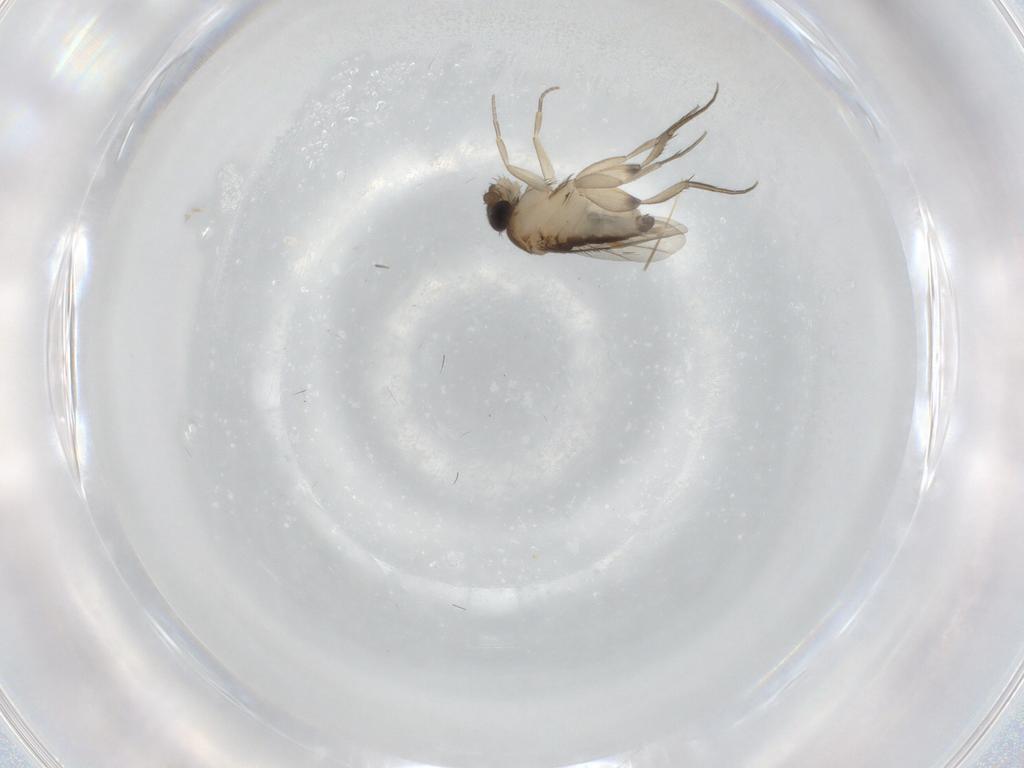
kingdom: Animalia
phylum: Arthropoda
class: Insecta
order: Diptera
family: Phoridae
